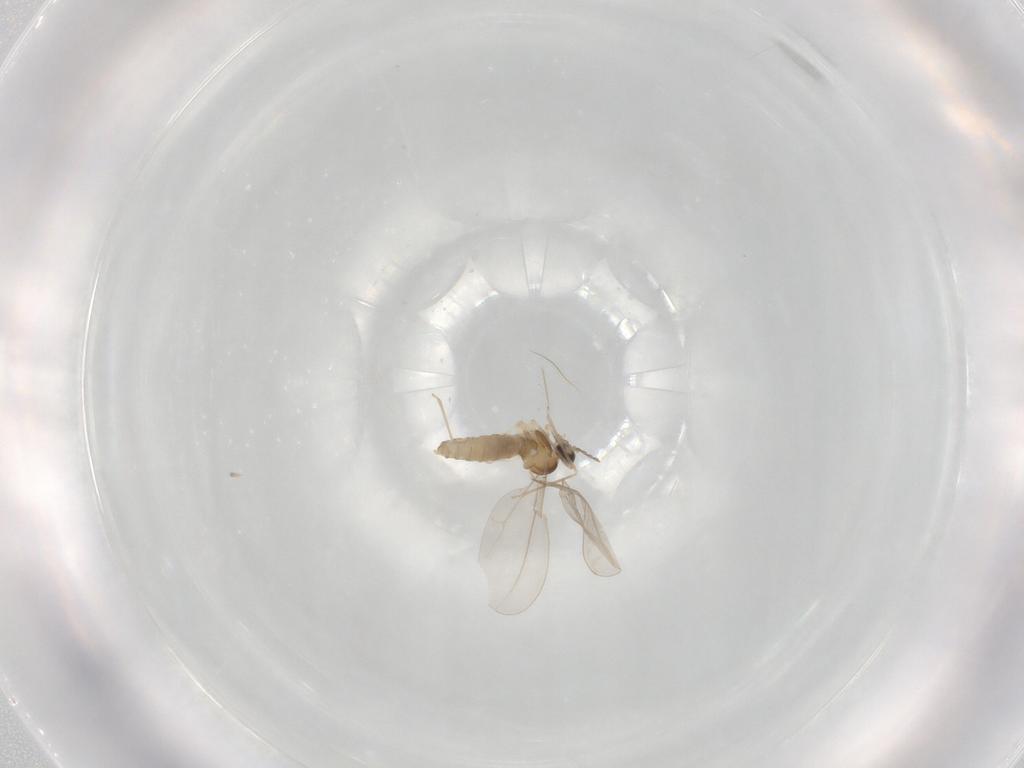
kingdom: Animalia
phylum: Arthropoda
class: Insecta
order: Diptera
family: Cecidomyiidae
